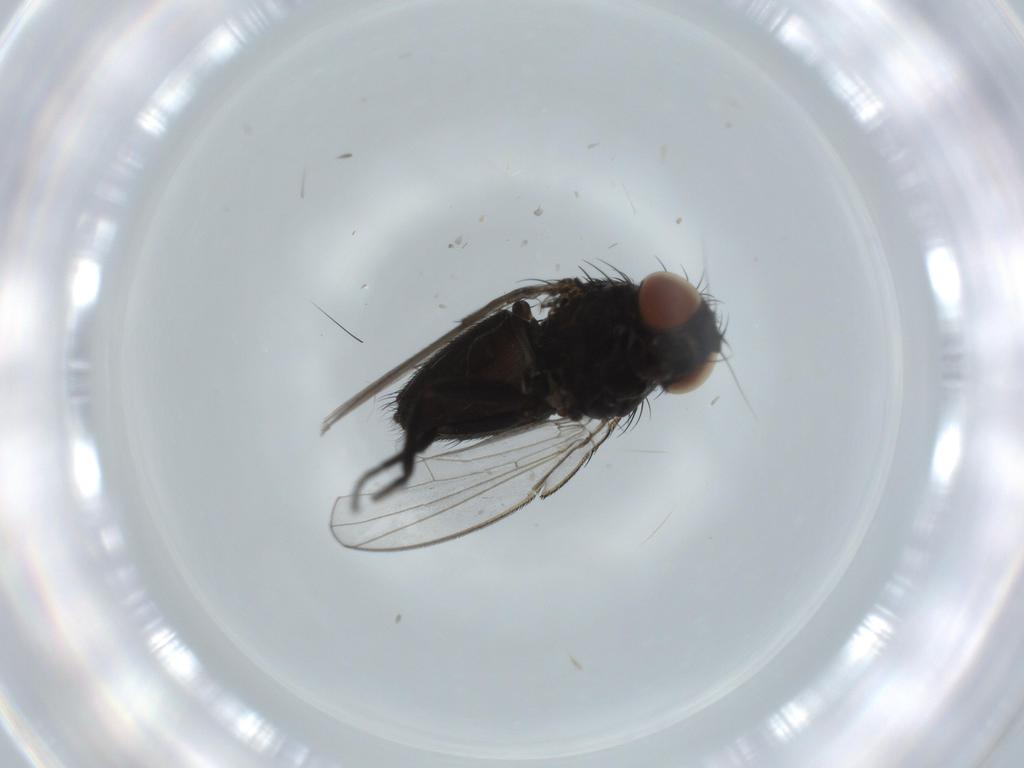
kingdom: Animalia
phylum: Arthropoda
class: Insecta
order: Diptera
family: Milichiidae
